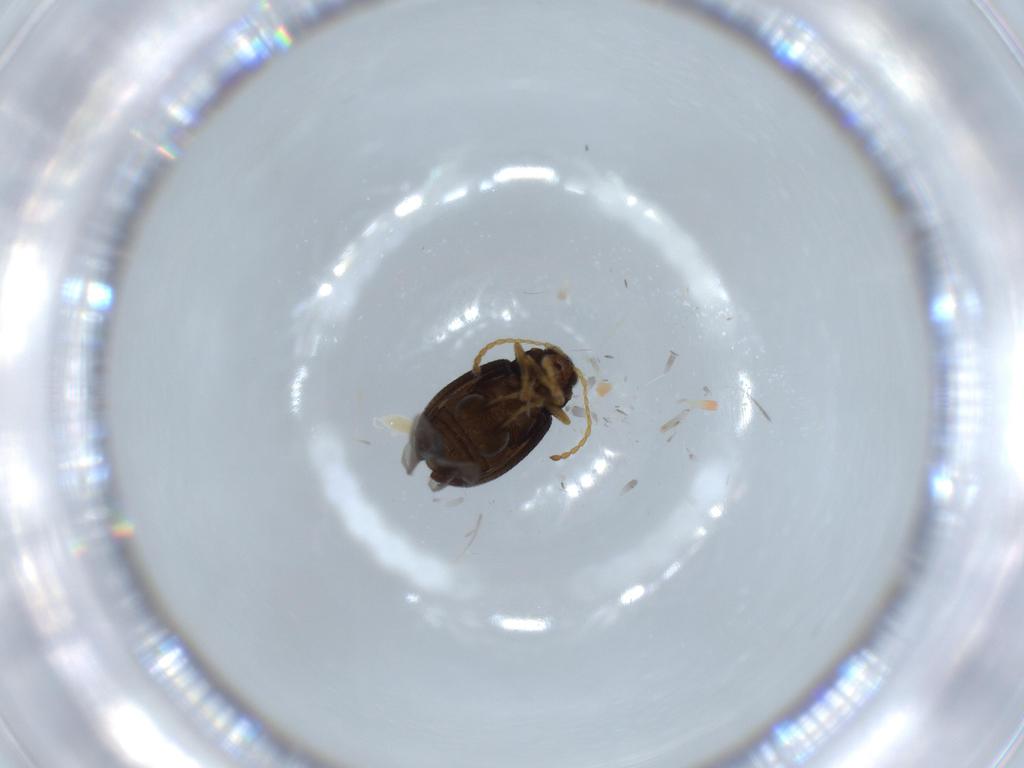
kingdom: Animalia
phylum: Arthropoda
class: Insecta
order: Coleoptera
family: Chrysomelidae
